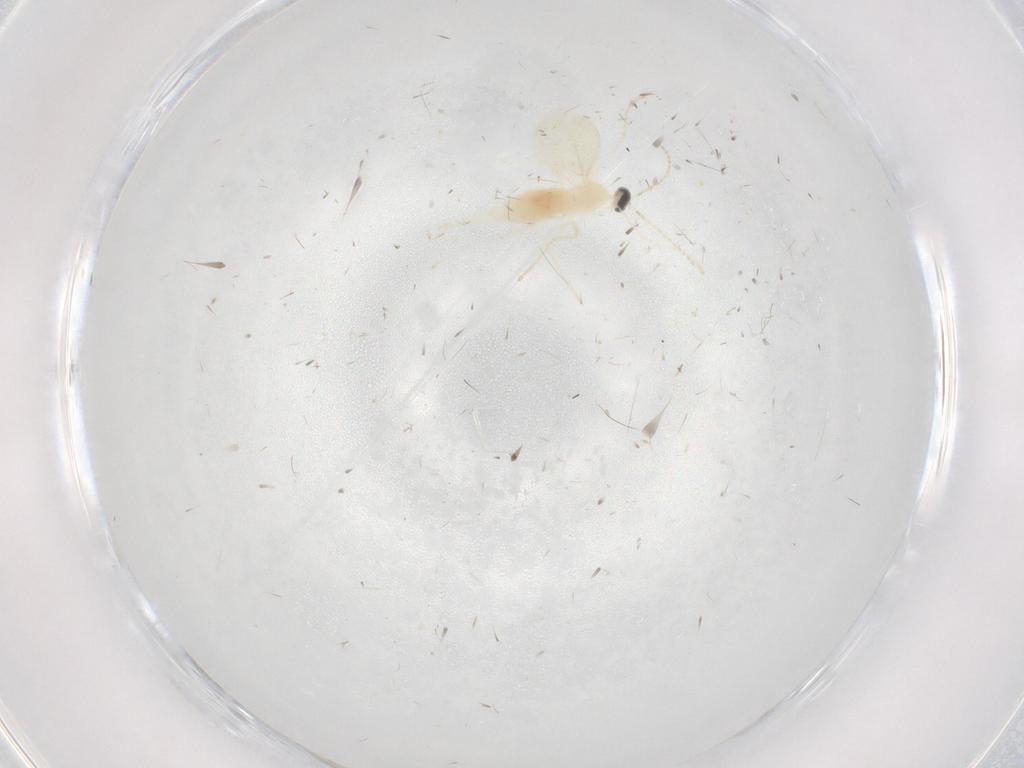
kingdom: Animalia
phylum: Arthropoda
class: Insecta
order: Diptera
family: Cecidomyiidae
